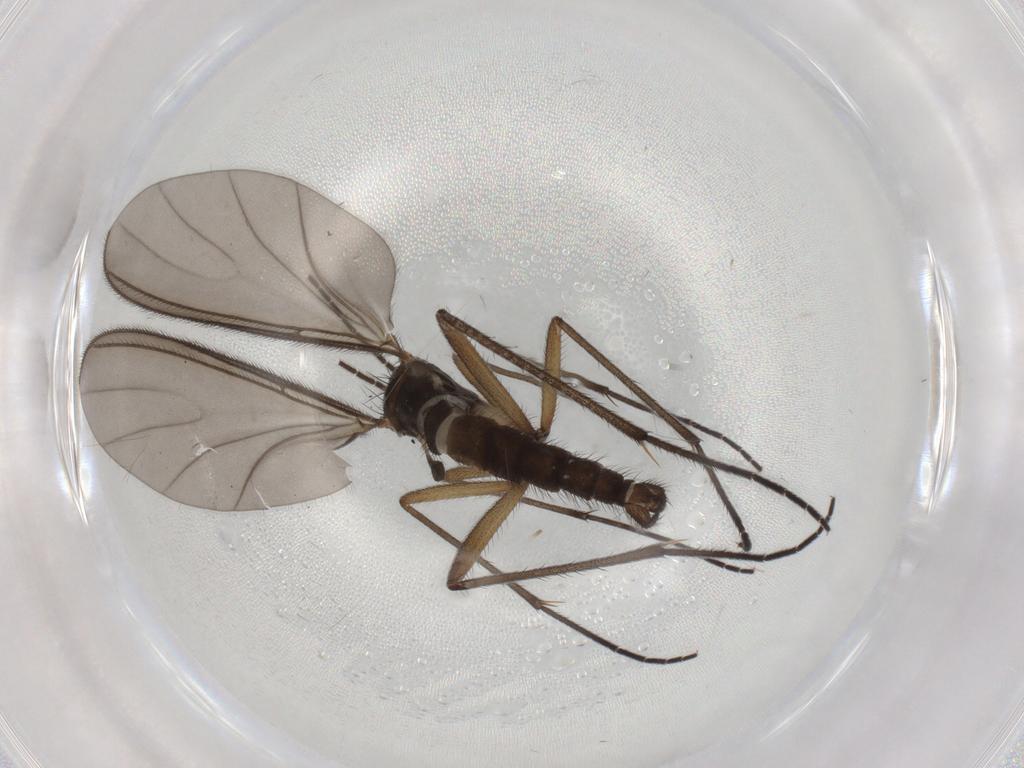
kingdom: Animalia
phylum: Arthropoda
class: Insecta
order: Diptera
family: Sciaridae
